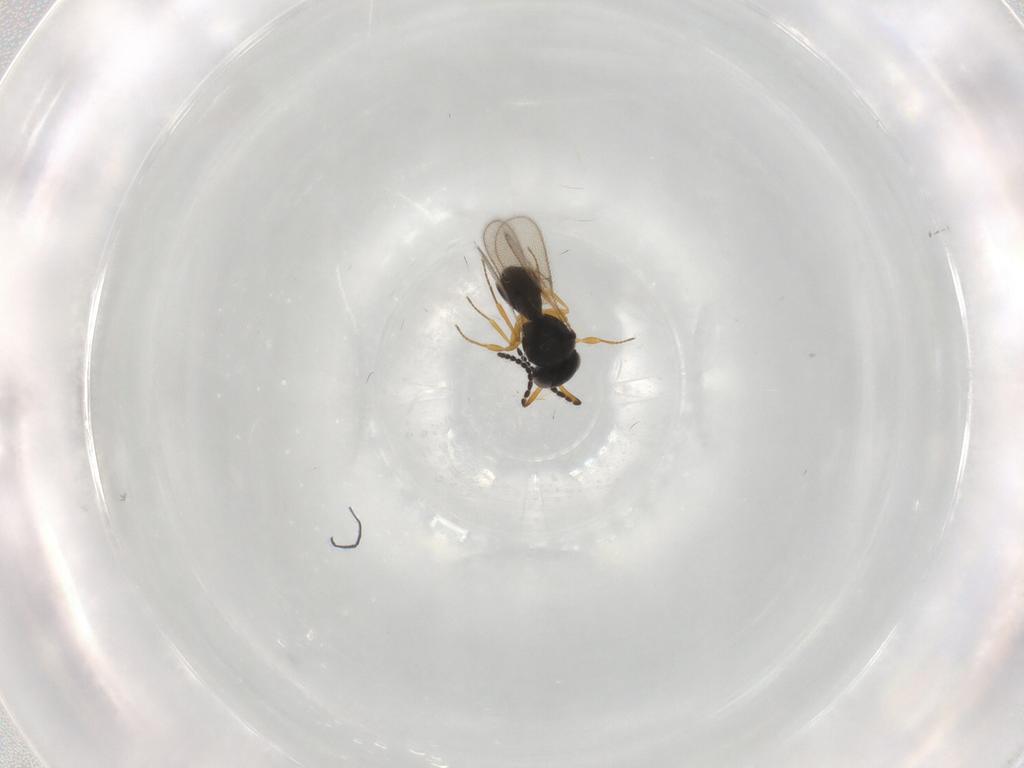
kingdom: Animalia
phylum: Arthropoda
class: Insecta
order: Hymenoptera
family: Scelionidae
